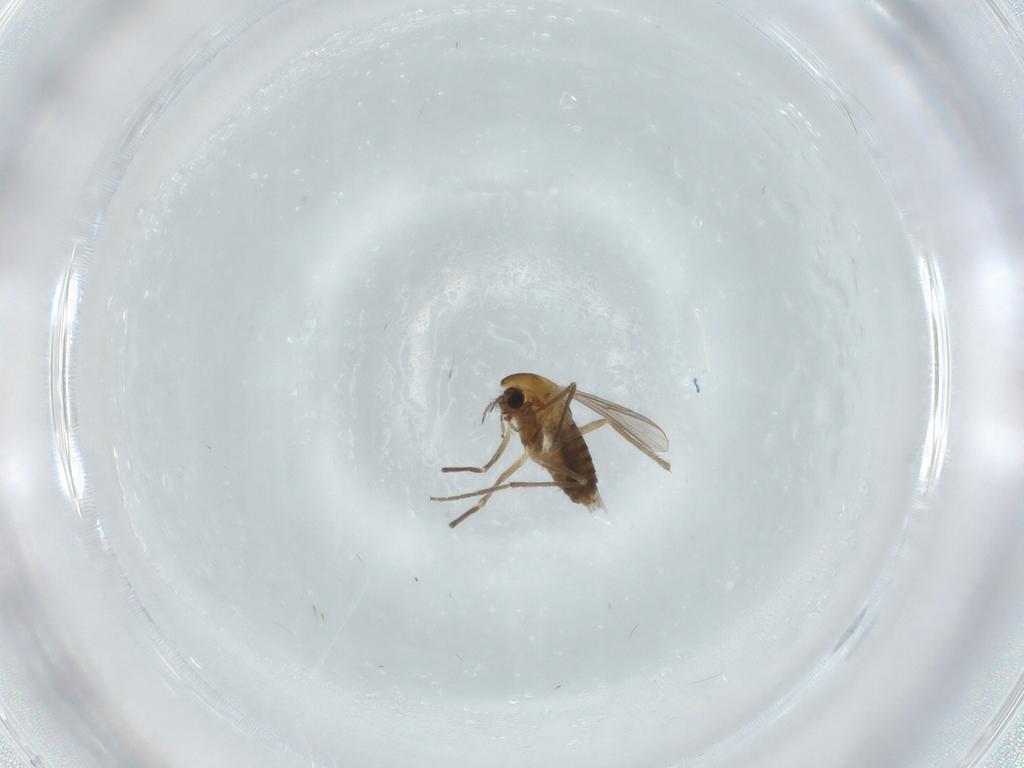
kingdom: Animalia
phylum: Arthropoda
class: Insecta
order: Diptera
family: Chironomidae
